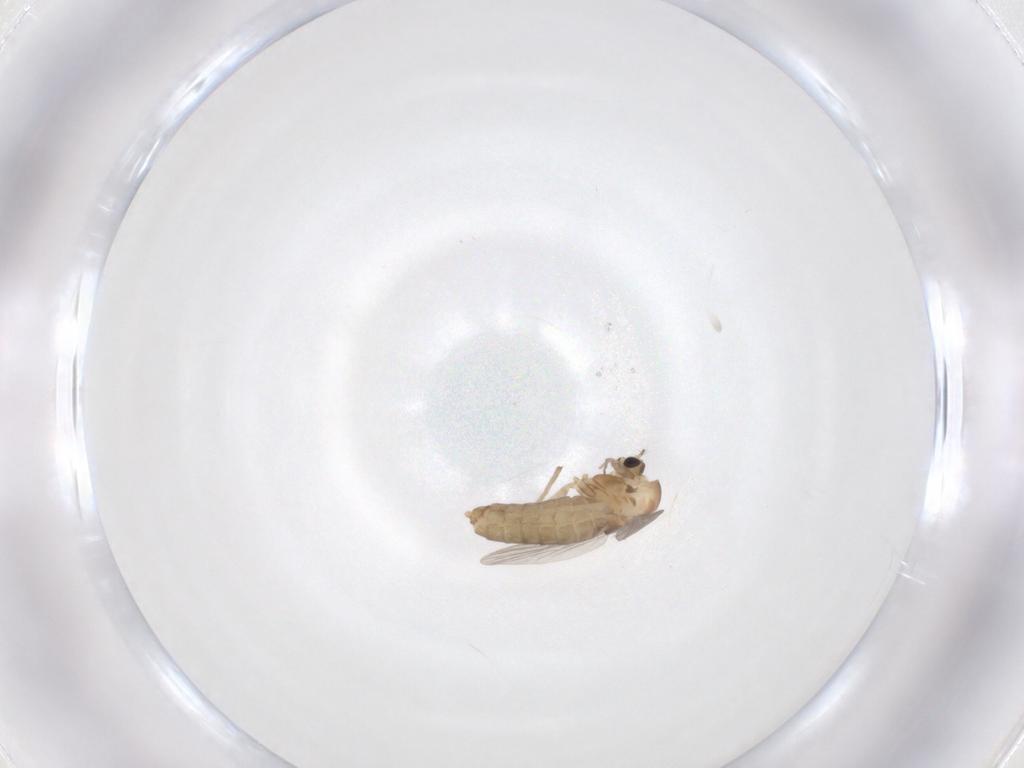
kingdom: Animalia
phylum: Arthropoda
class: Insecta
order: Diptera
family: Chironomidae
